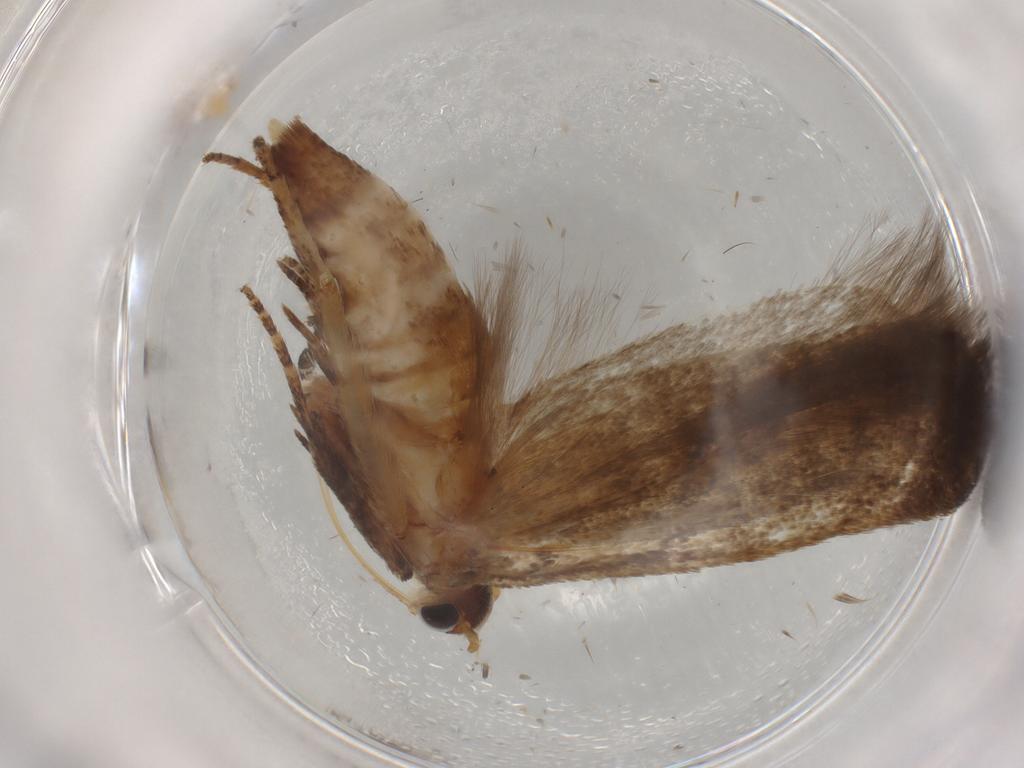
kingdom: Animalia
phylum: Arthropoda
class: Insecta
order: Lepidoptera
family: Gelechiidae
